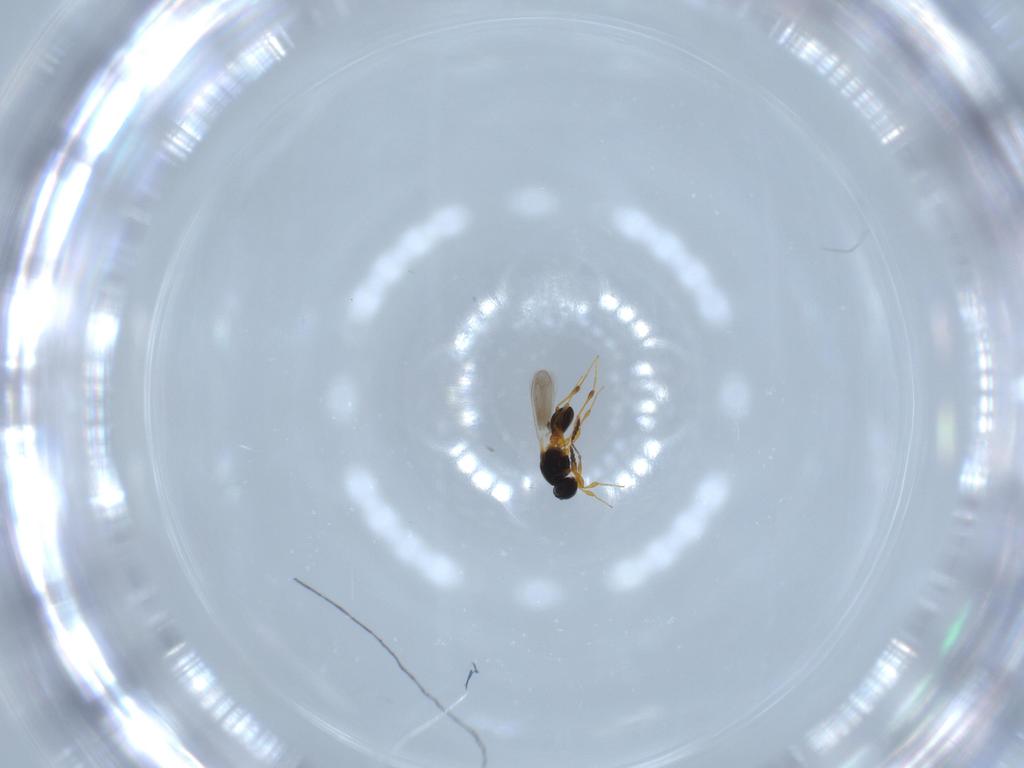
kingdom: Animalia
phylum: Arthropoda
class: Insecta
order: Hymenoptera
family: Platygastridae
